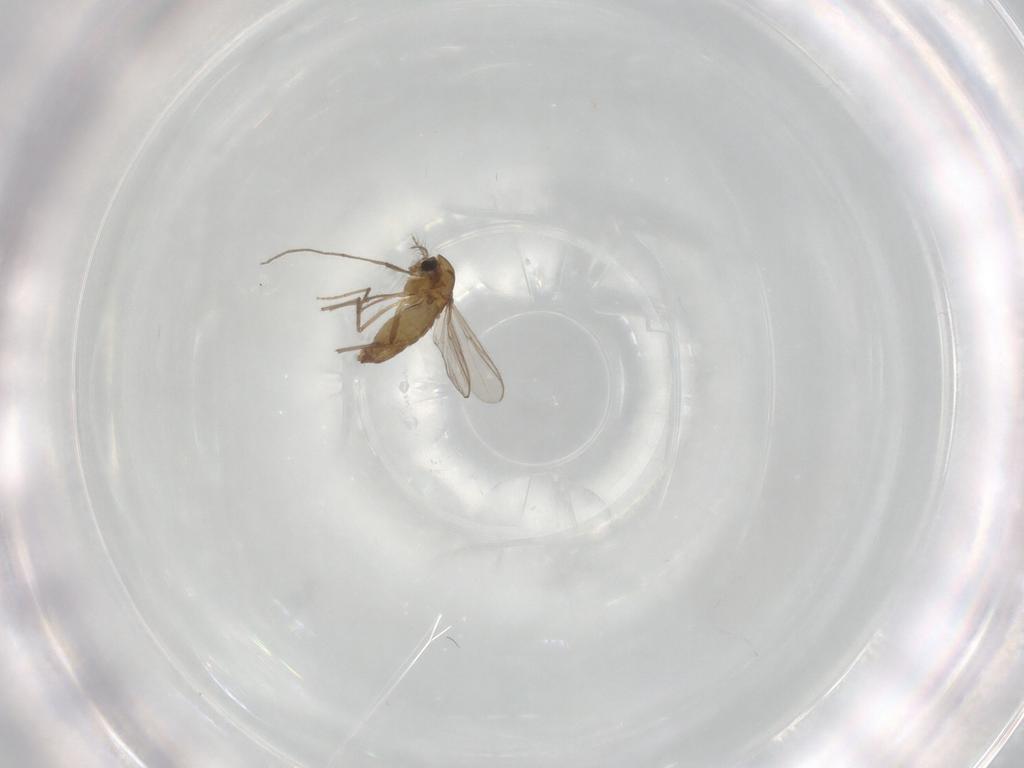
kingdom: Animalia
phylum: Arthropoda
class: Insecta
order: Diptera
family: Chironomidae
